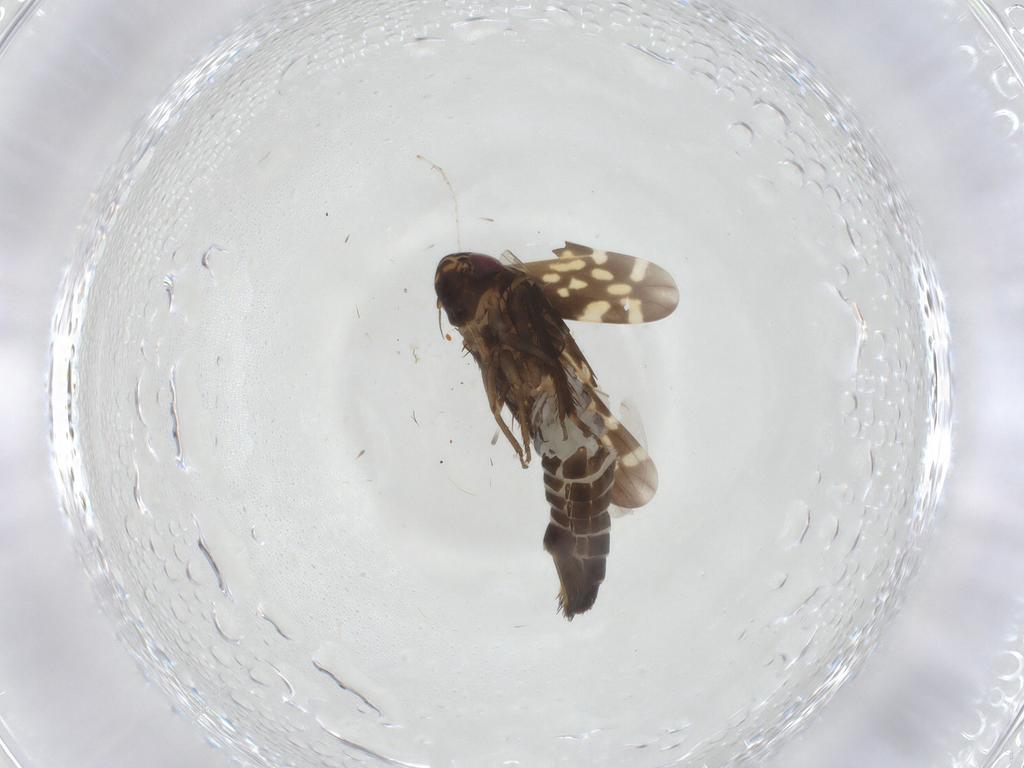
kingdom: Animalia
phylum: Arthropoda
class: Insecta
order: Hemiptera
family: Cicadellidae
